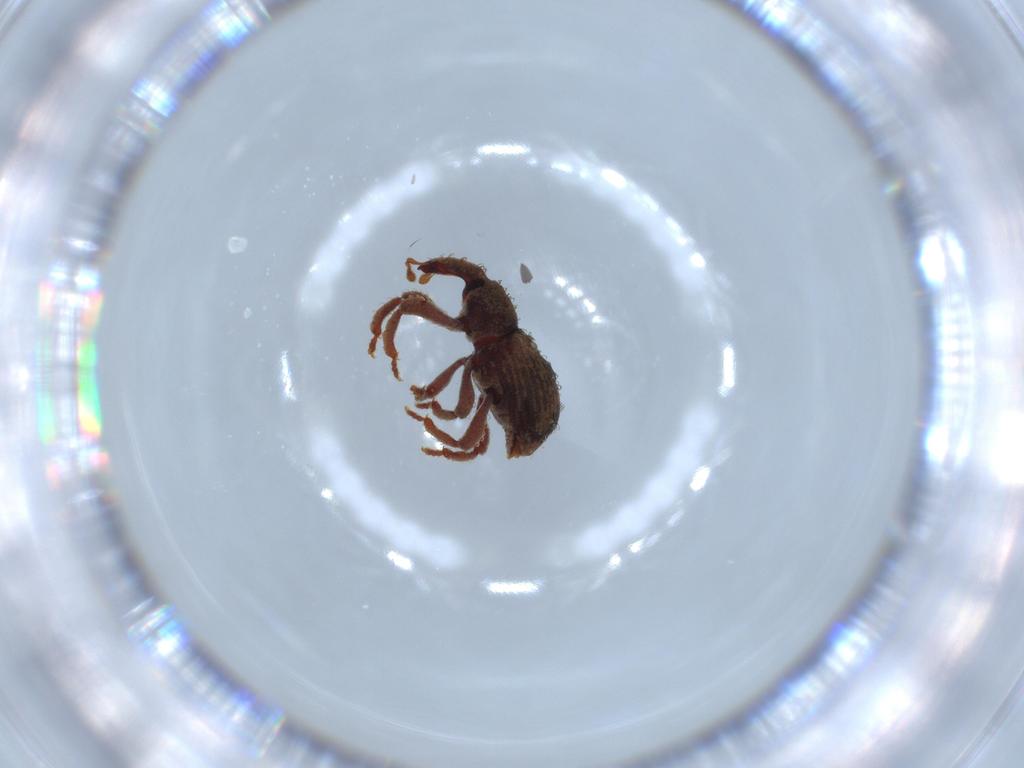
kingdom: Animalia
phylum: Arthropoda
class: Insecta
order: Coleoptera
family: Curculionidae
